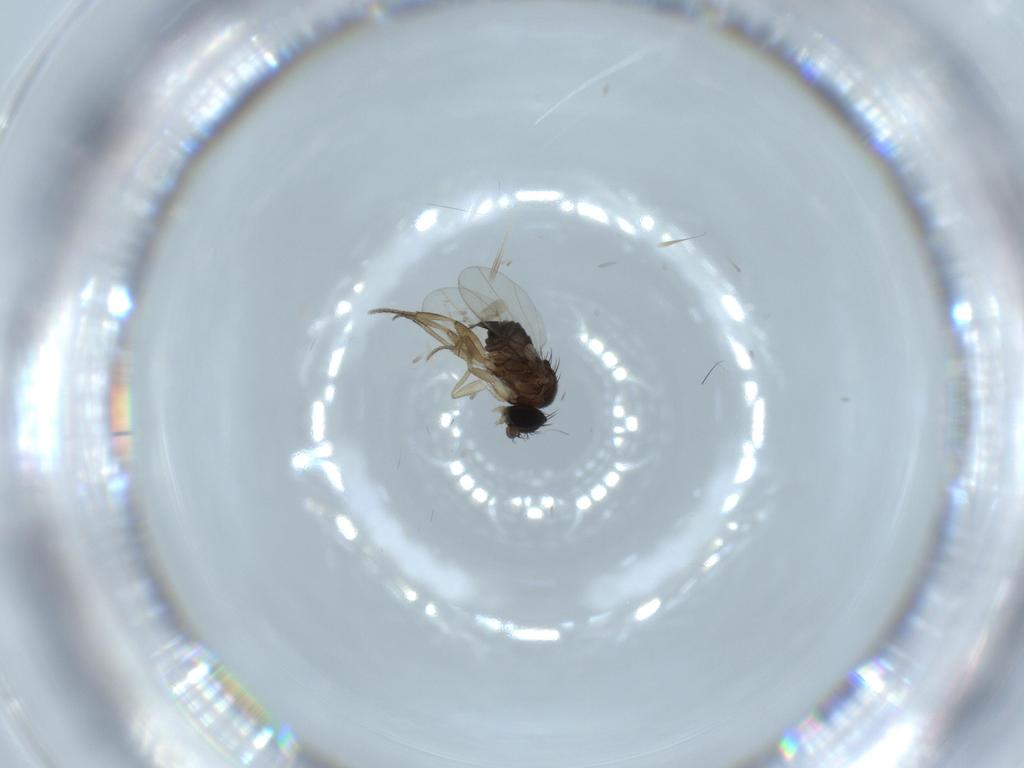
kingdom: Animalia
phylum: Arthropoda
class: Insecta
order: Diptera
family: Phoridae
